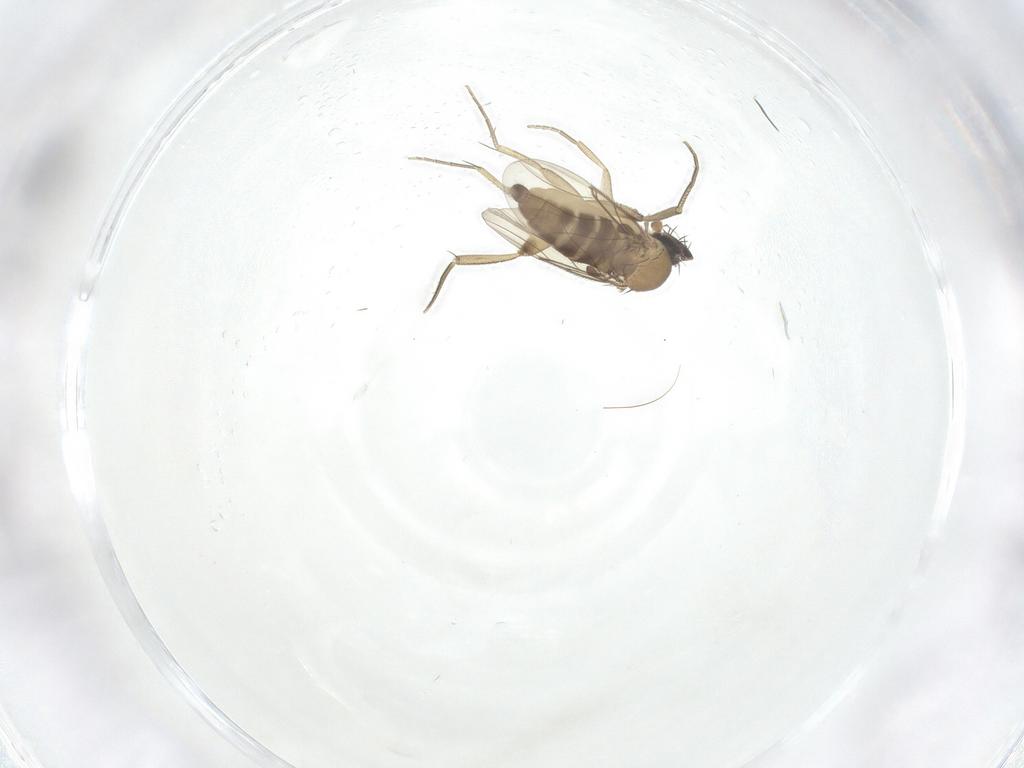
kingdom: Animalia
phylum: Arthropoda
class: Insecta
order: Diptera
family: Phoridae
